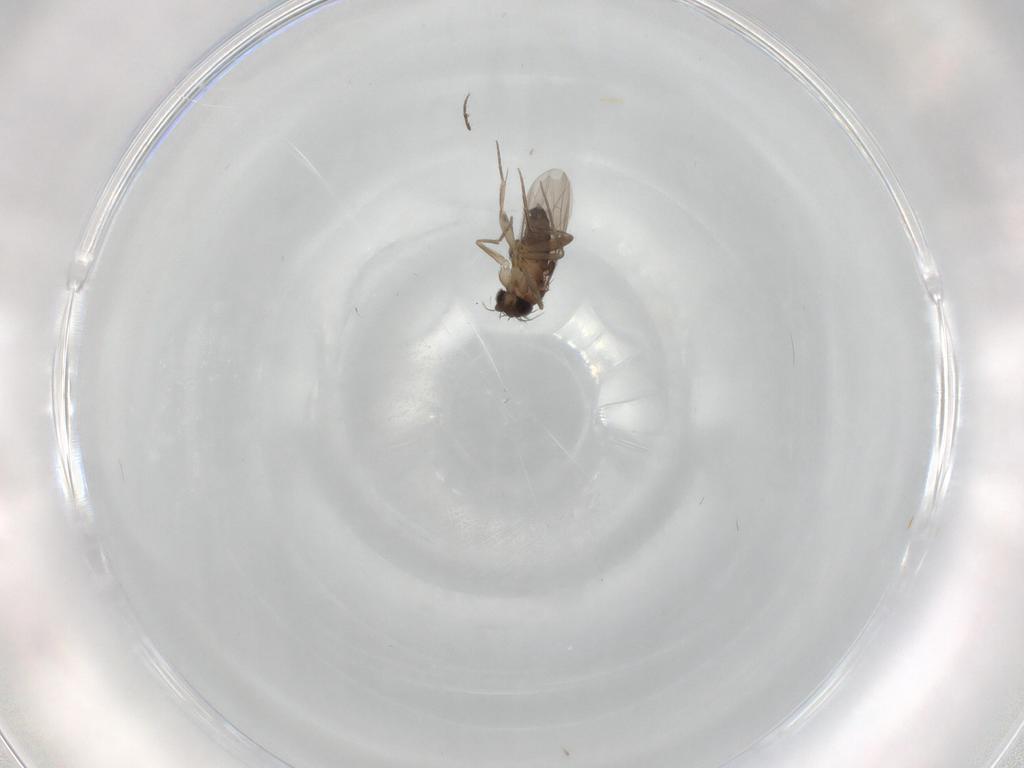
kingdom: Animalia
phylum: Arthropoda
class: Insecta
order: Diptera
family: Phoridae
